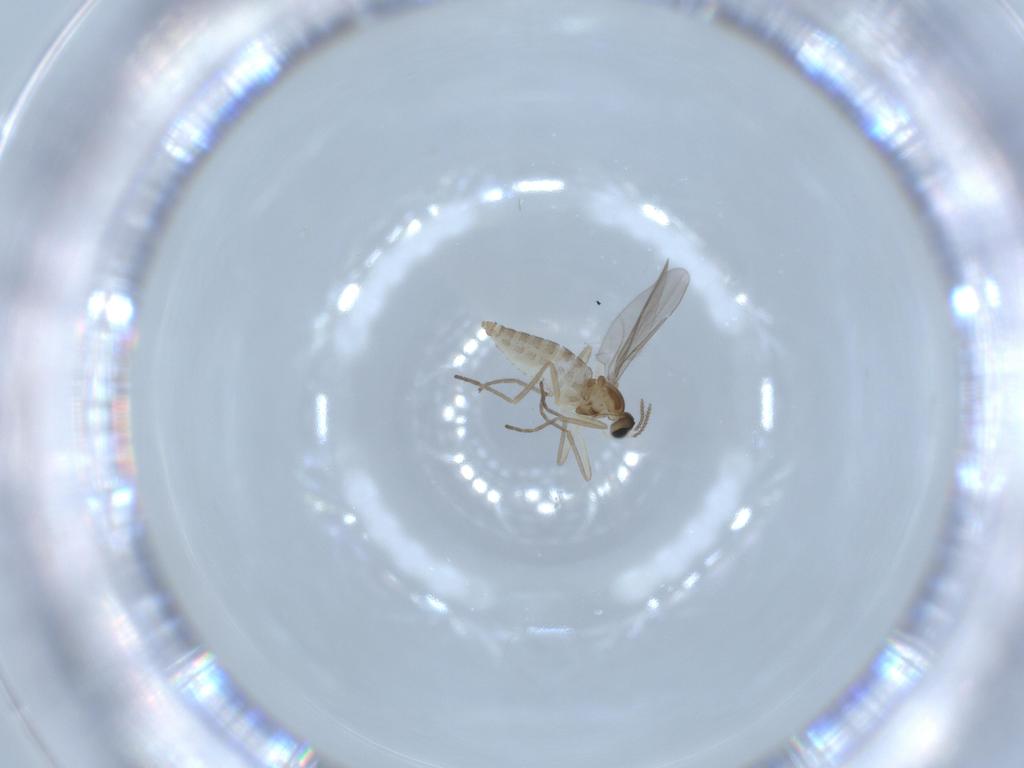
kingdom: Animalia
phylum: Arthropoda
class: Insecta
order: Diptera
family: Cecidomyiidae
